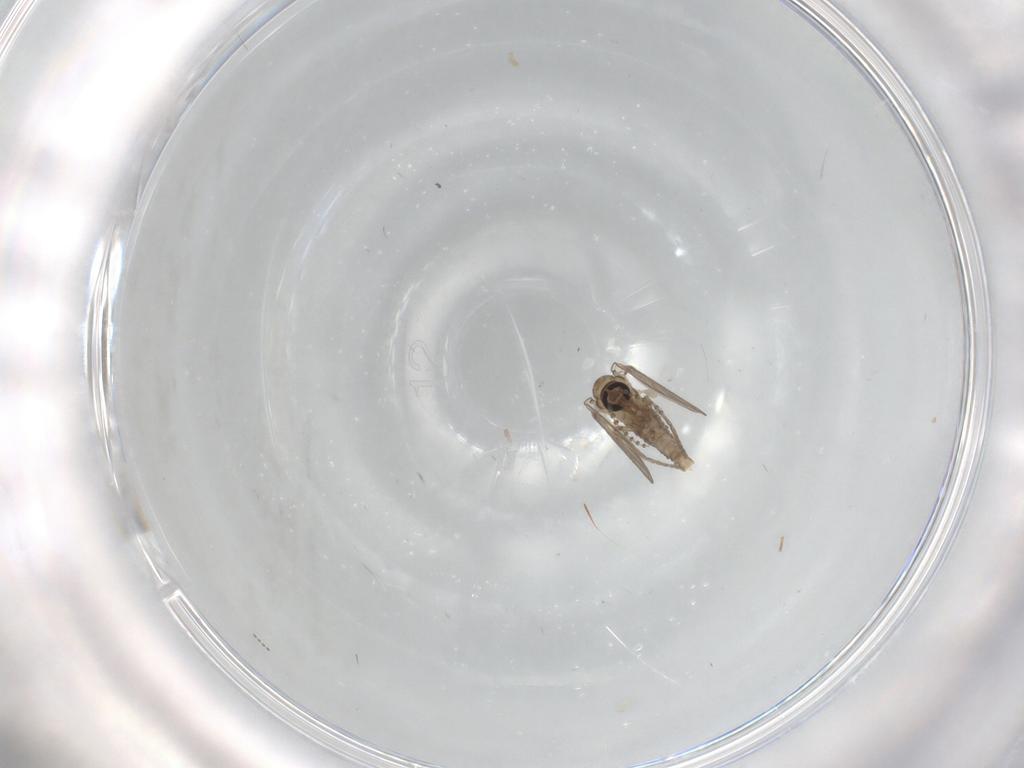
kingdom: Animalia
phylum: Arthropoda
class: Insecta
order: Diptera
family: Psychodidae
